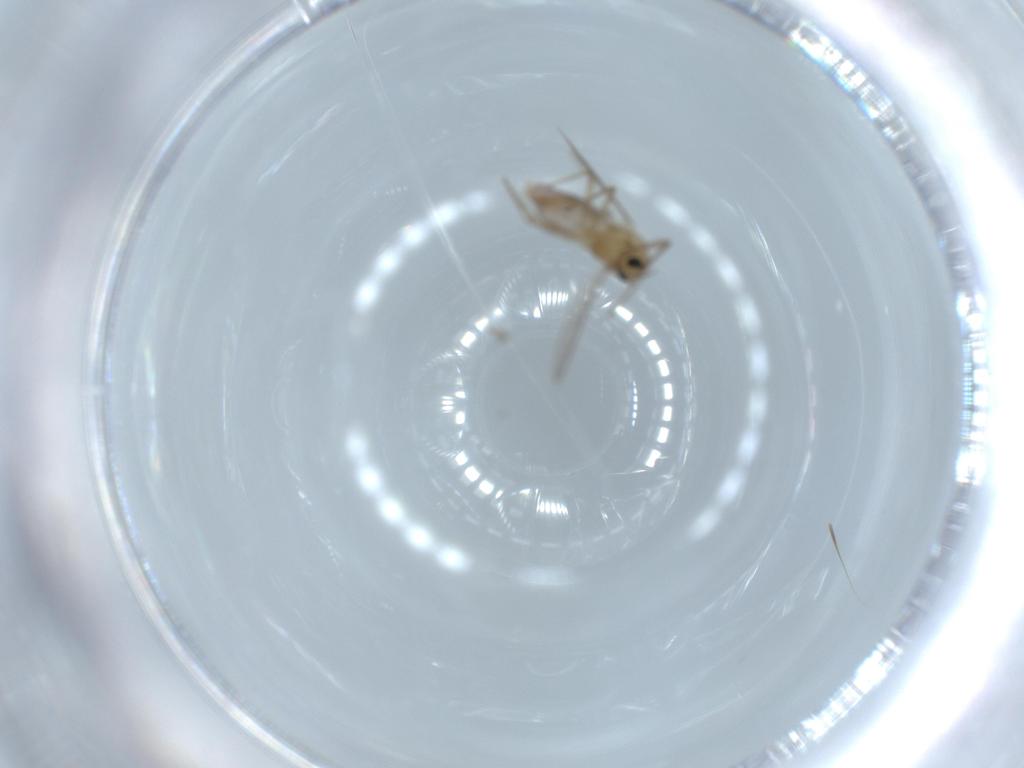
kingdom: Animalia
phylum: Arthropoda
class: Insecta
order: Diptera
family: Chironomidae
